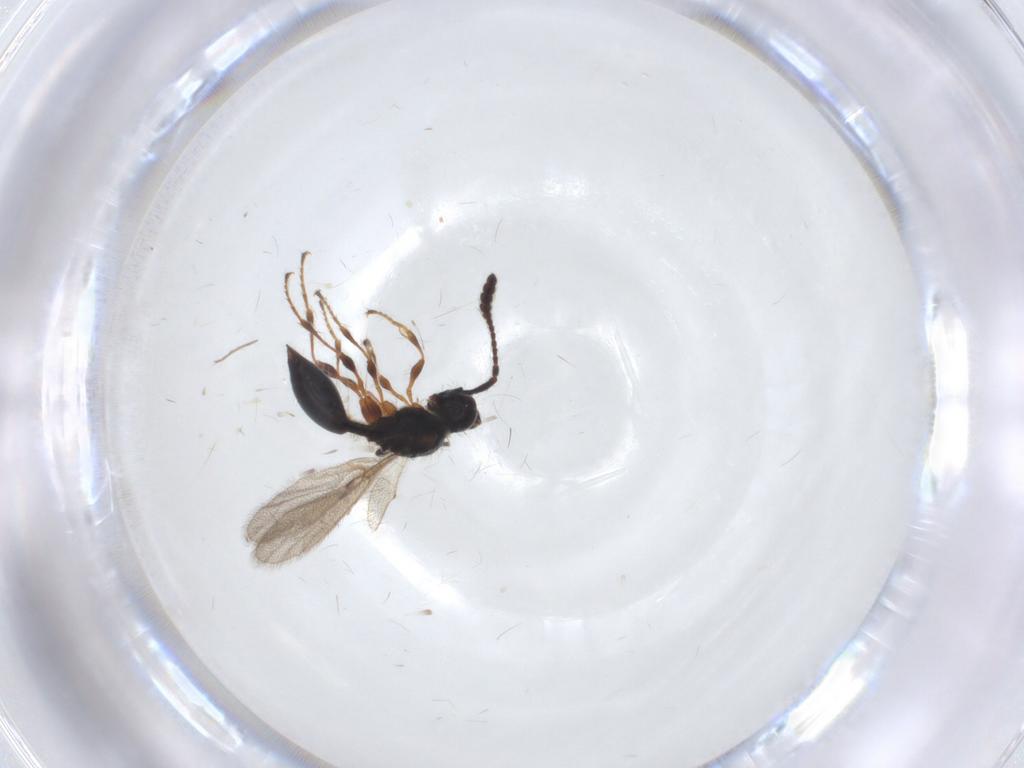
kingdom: Animalia
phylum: Arthropoda
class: Insecta
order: Hymenoptera
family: Diapriidae
